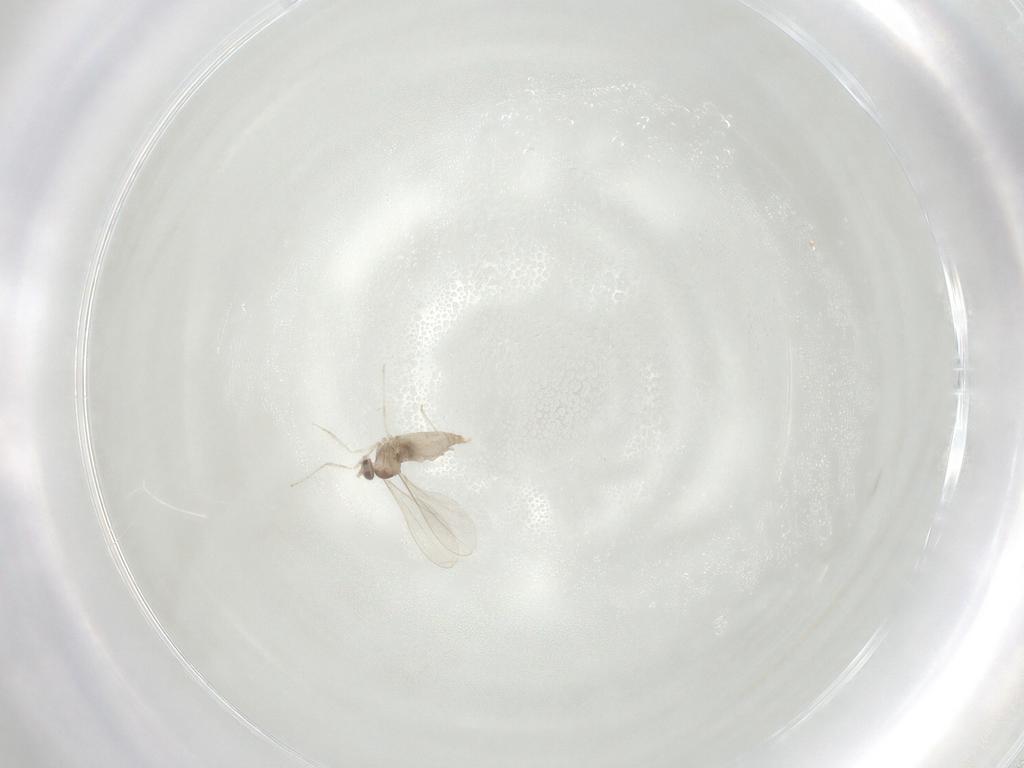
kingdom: Animalia
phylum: Arthropoda
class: Insecta
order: Diptera
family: Cecidomyiidae
